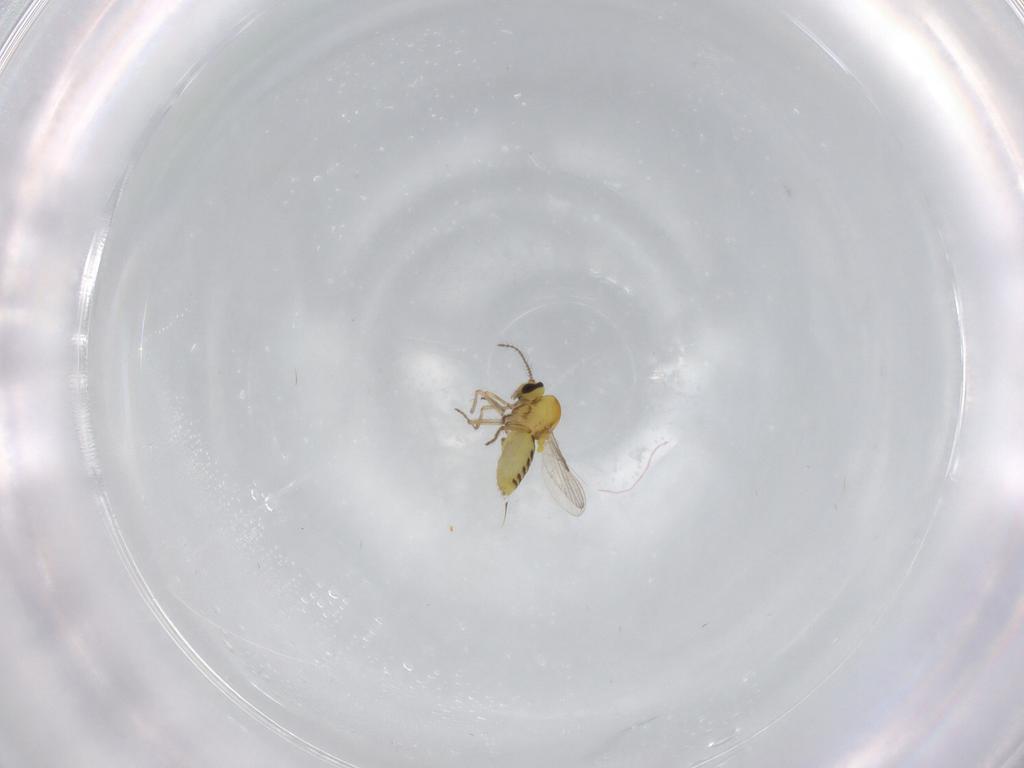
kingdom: Animalia
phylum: Arthropoda
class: Insecta
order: Diptera
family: Ceratopogonidae
